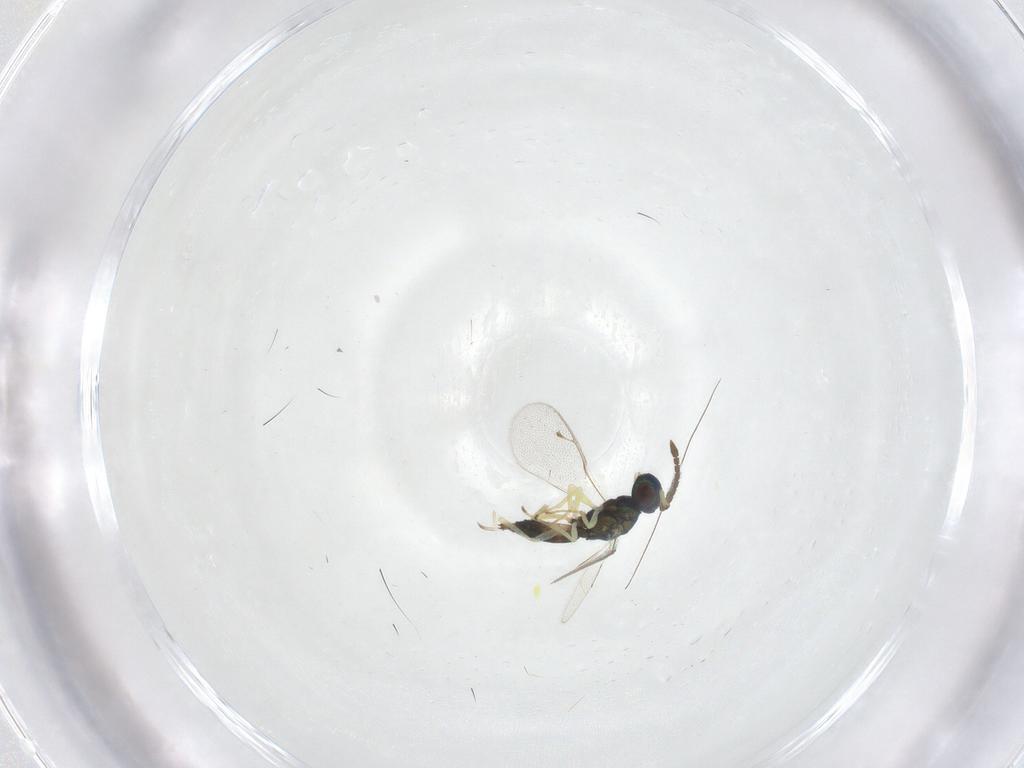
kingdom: Animalia
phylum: Arthropoda
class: Insecta
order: Hymenoptera
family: Pteromalidae
